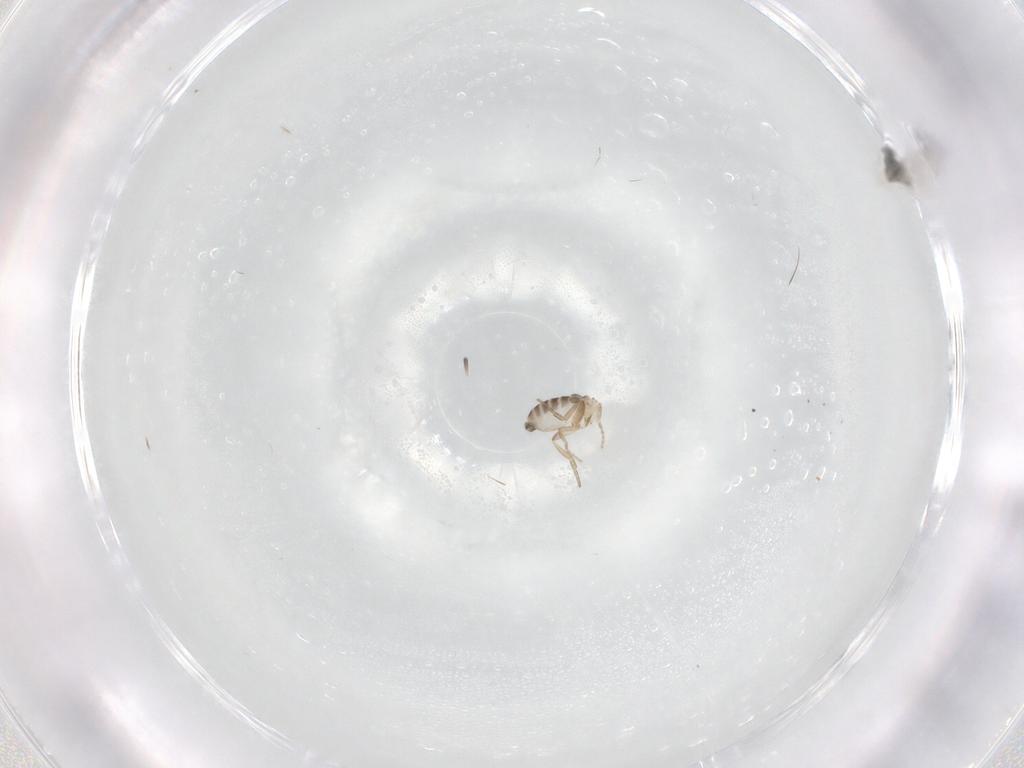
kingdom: Animalia
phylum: Arthropoda
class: Insecta
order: Diptera
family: Phoridae
